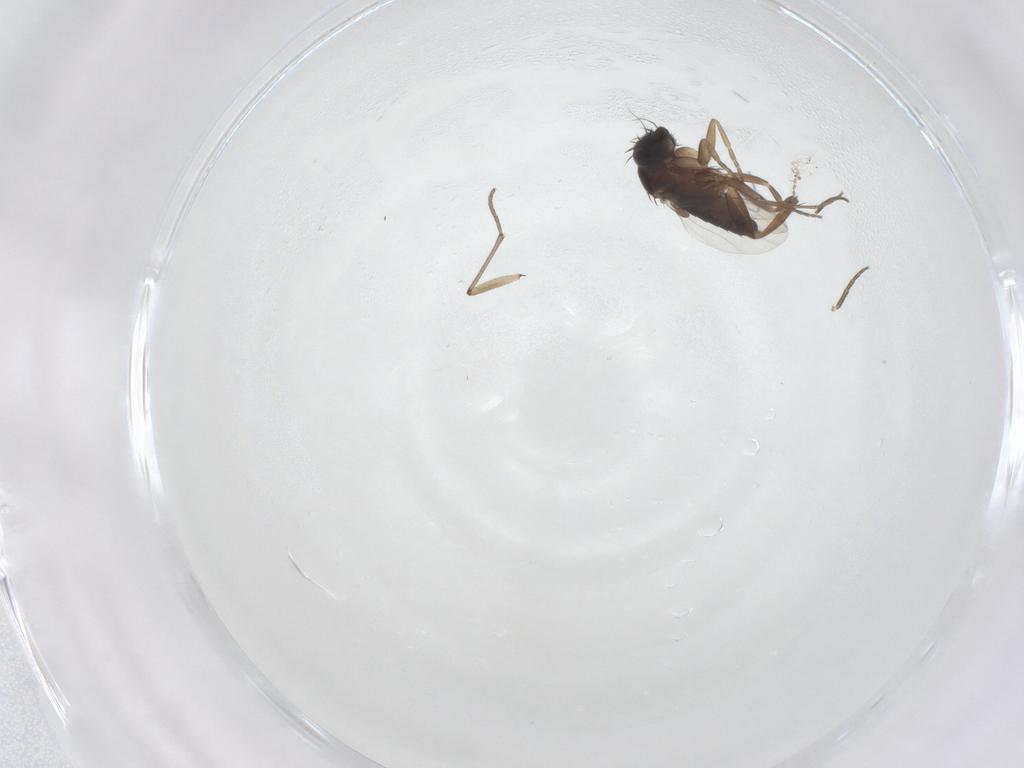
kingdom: Animalia
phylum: Arthropoda
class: Insecta
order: Diptera
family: Phoridae
